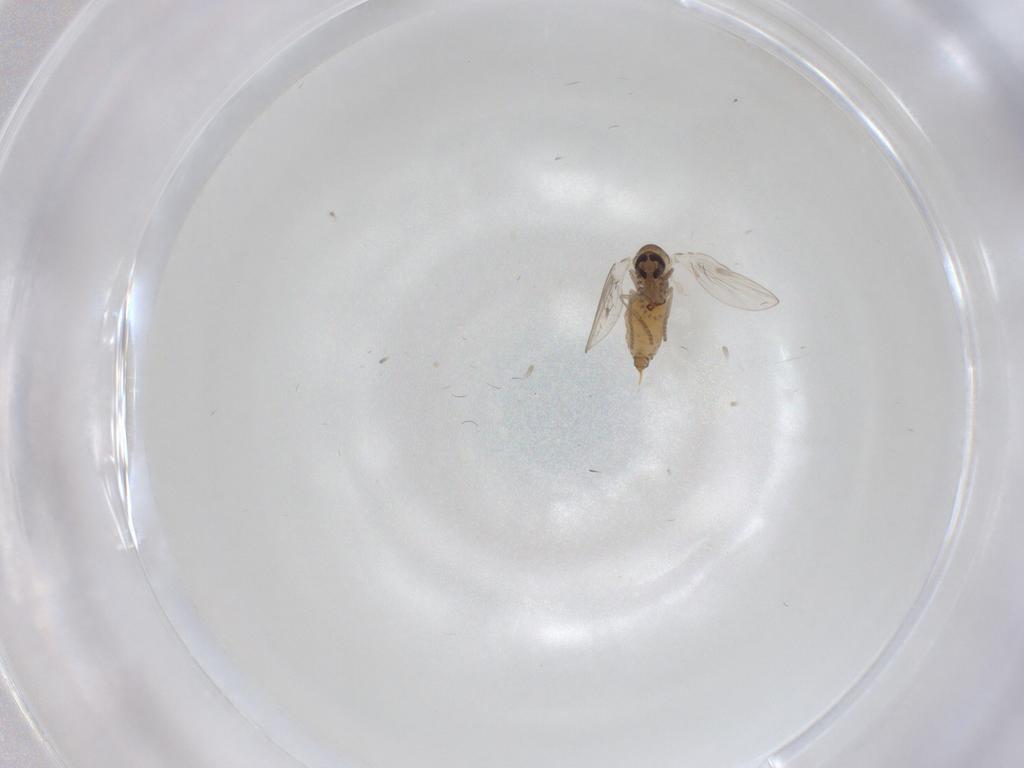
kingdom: Animalia
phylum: Arthropoda
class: Insecta
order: Diptera
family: Psychodidae
